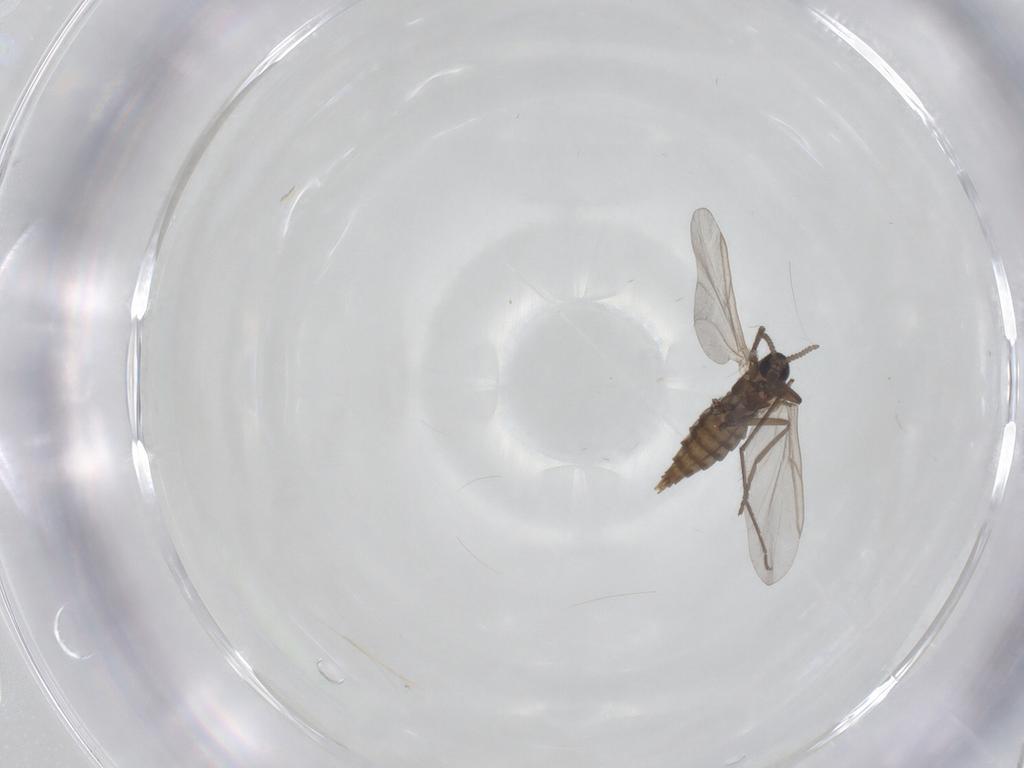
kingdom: Animalia
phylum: Arthropoda
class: Insecta
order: Diptera
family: Cecidomyiidae
